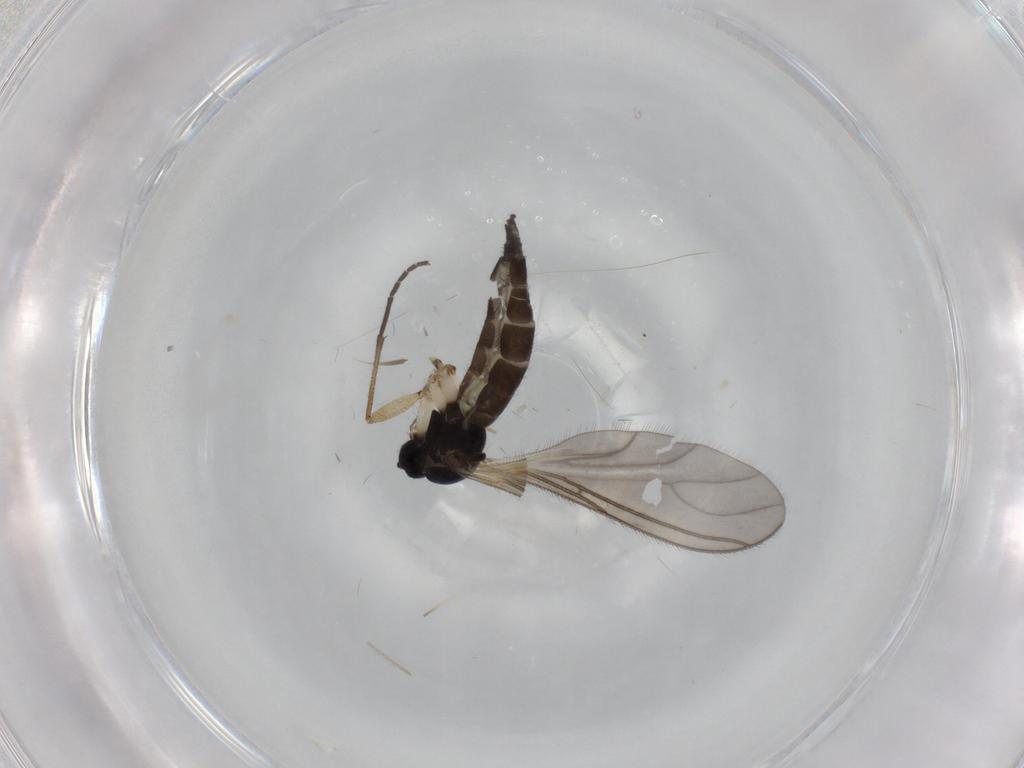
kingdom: Animalia
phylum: Arthropoda
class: Insecta
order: Diptera
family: Sciaridae
